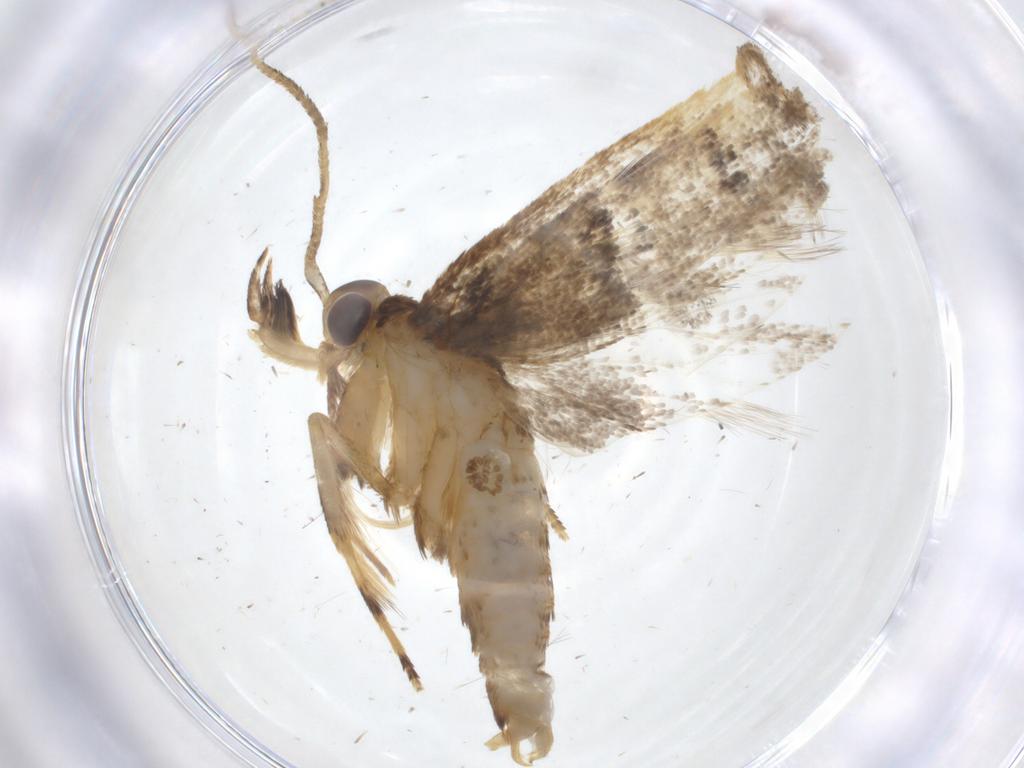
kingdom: Animalia
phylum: Arthropoda
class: Insecta
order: Lepidoptera
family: Lecithoceridae
